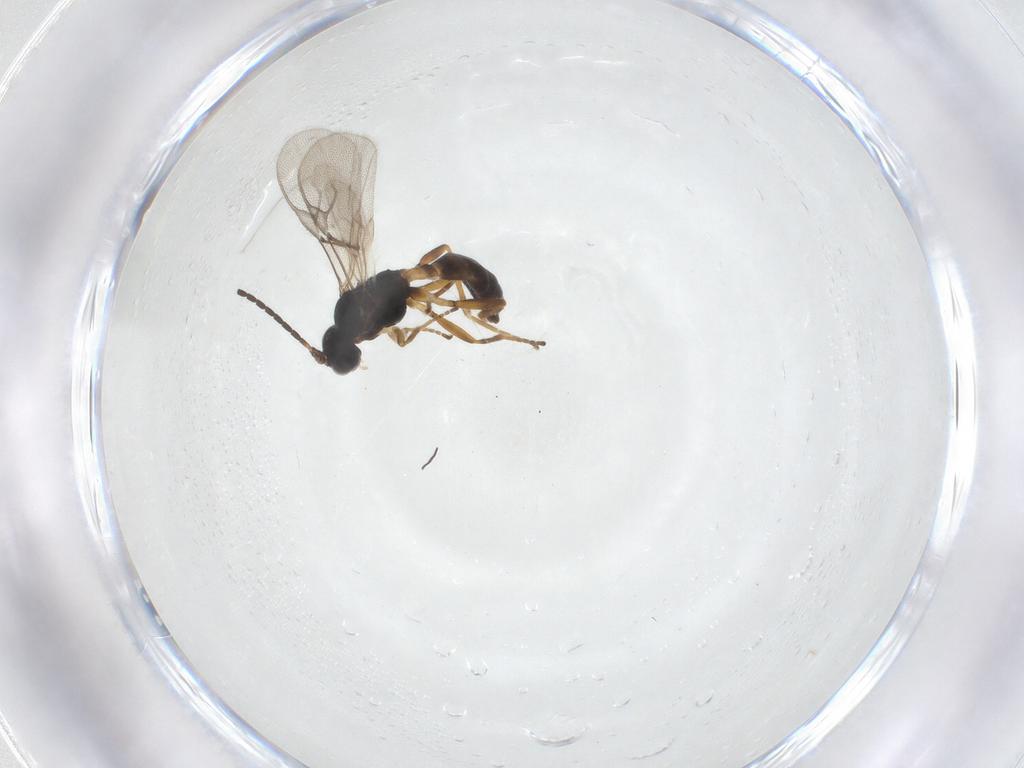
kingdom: Animalia
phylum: Arthropoda
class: Insecta
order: Hymenoptera
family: Braconidae
